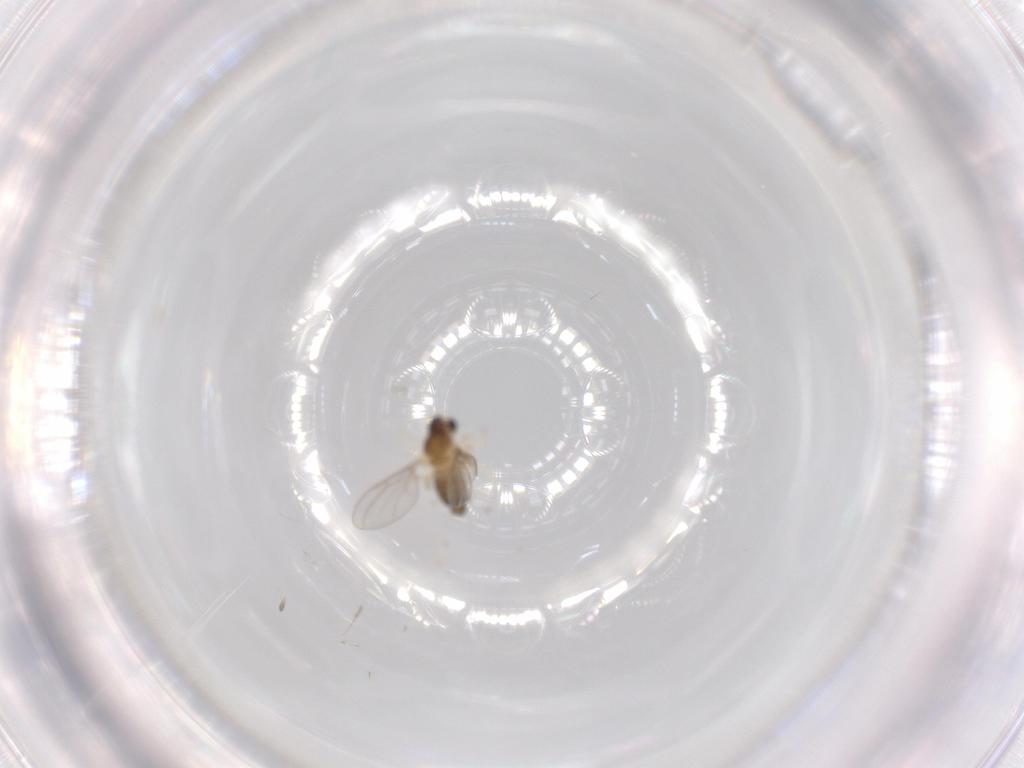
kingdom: Animalia
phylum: Arthropoda
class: Insecta
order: Diptera
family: Cecidomyiidae
